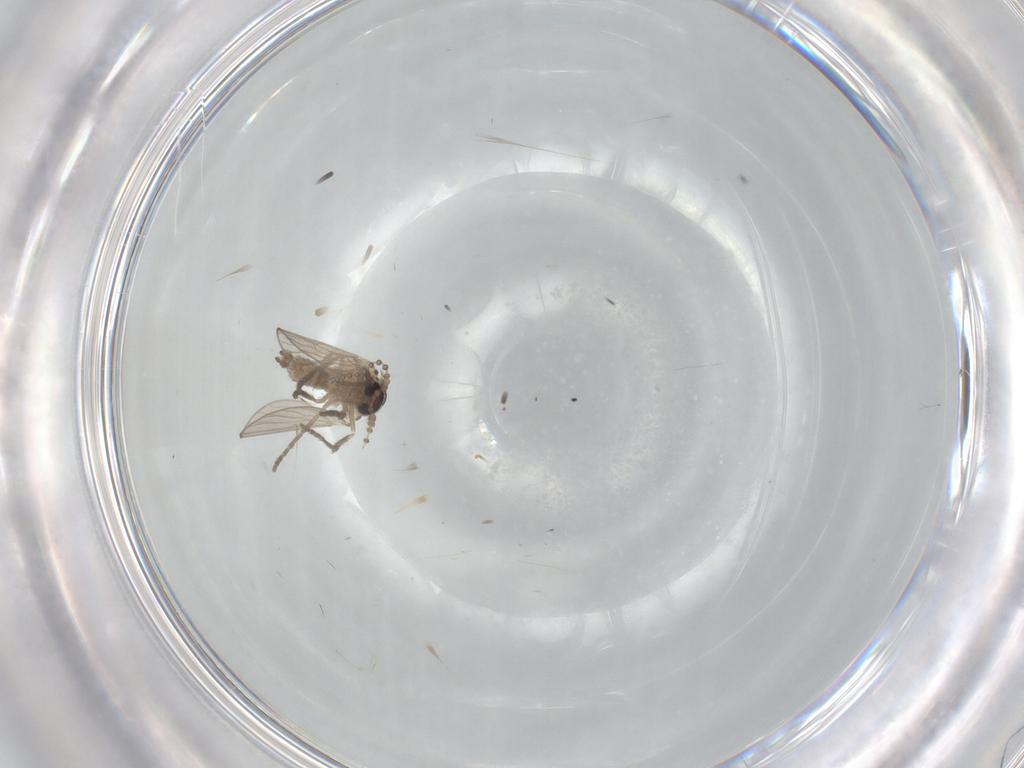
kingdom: Animalia
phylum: Arthropoda
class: Insecta
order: Diptera
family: Psychodidae
